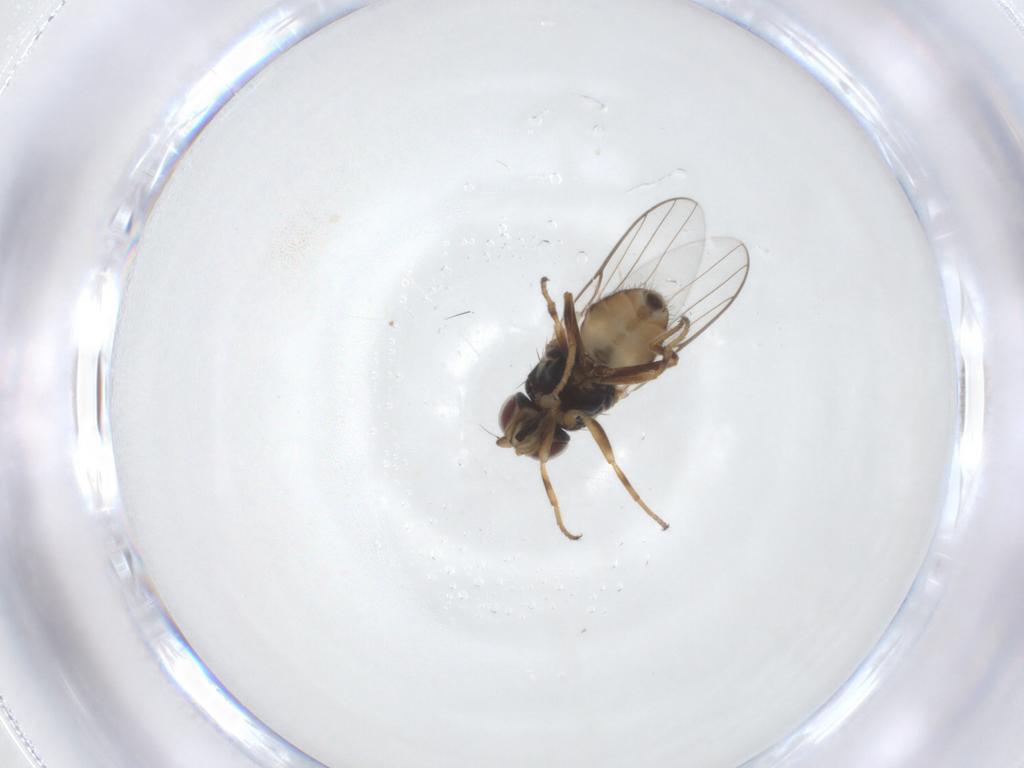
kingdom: Animalia
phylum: Arthropoda
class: Insecta
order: Diptera
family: Chloropidae
